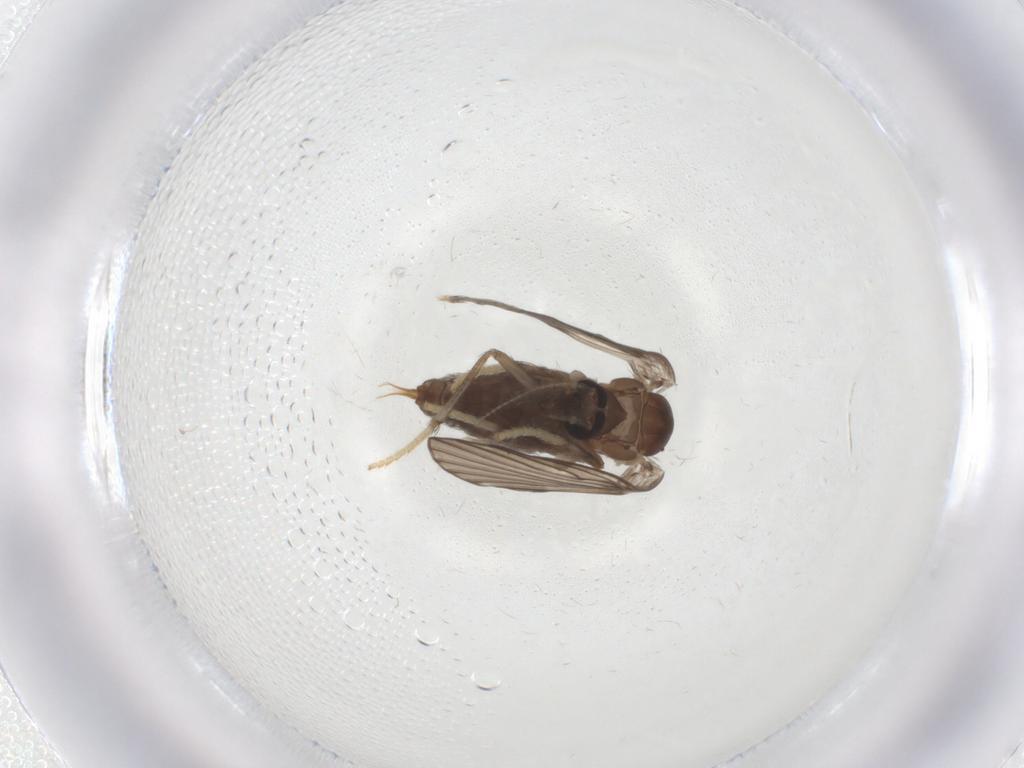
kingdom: Animalia
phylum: Arthropoda
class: Insecta
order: Diptera
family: Psychodidae
